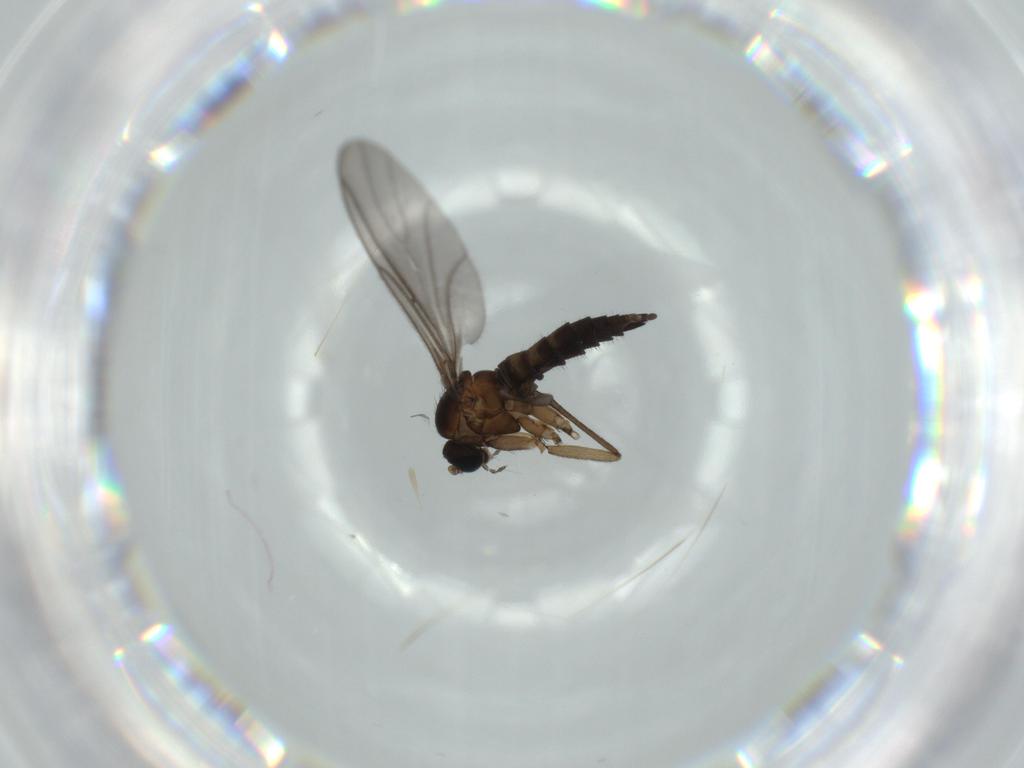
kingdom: Animalia
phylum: Arthropoda
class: Insecta
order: Diptera
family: Sciaridae
